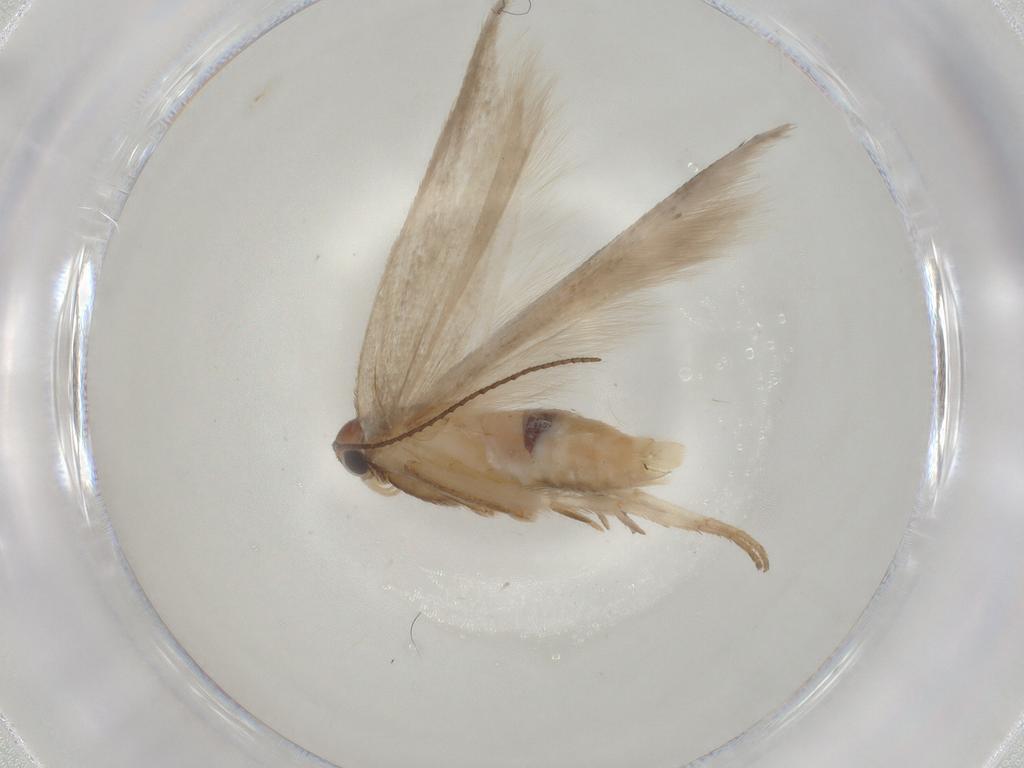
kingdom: Animalia
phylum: Arthropoda
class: Insecta
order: Lepidoptera
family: Gelechiidae
